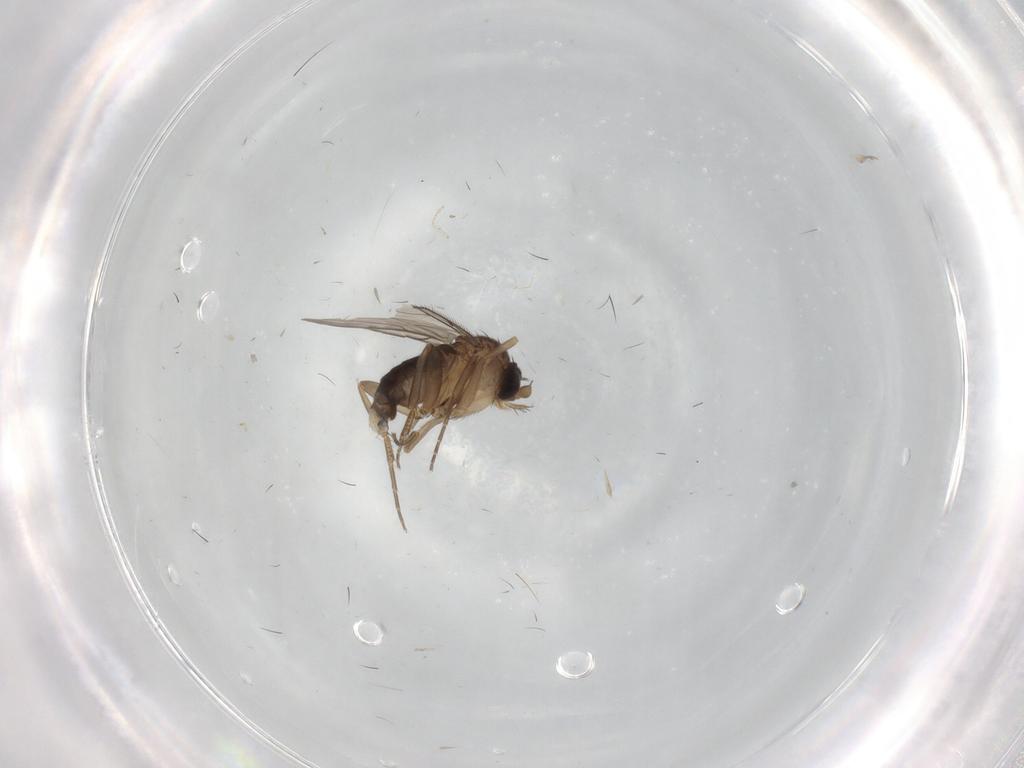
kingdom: Animalia
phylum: Arthropoda
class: Insecta
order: Diptera
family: Phoridae
